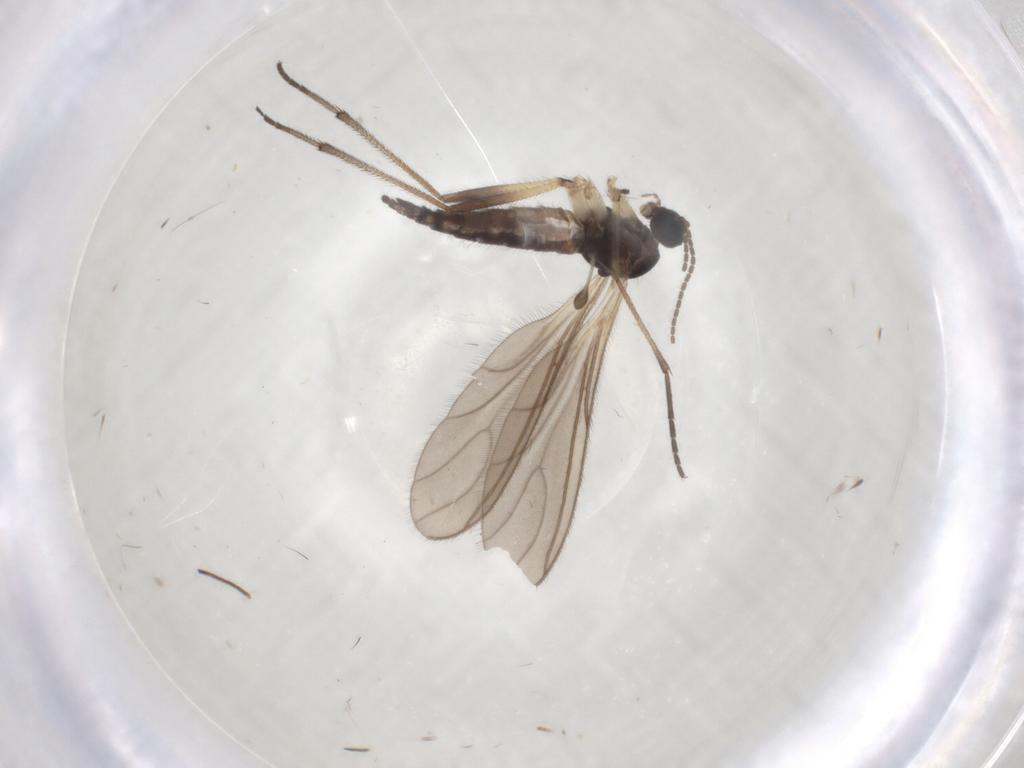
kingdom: Animalia
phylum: Arthropoda
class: Insecta
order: Diptera
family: Sciaridae
